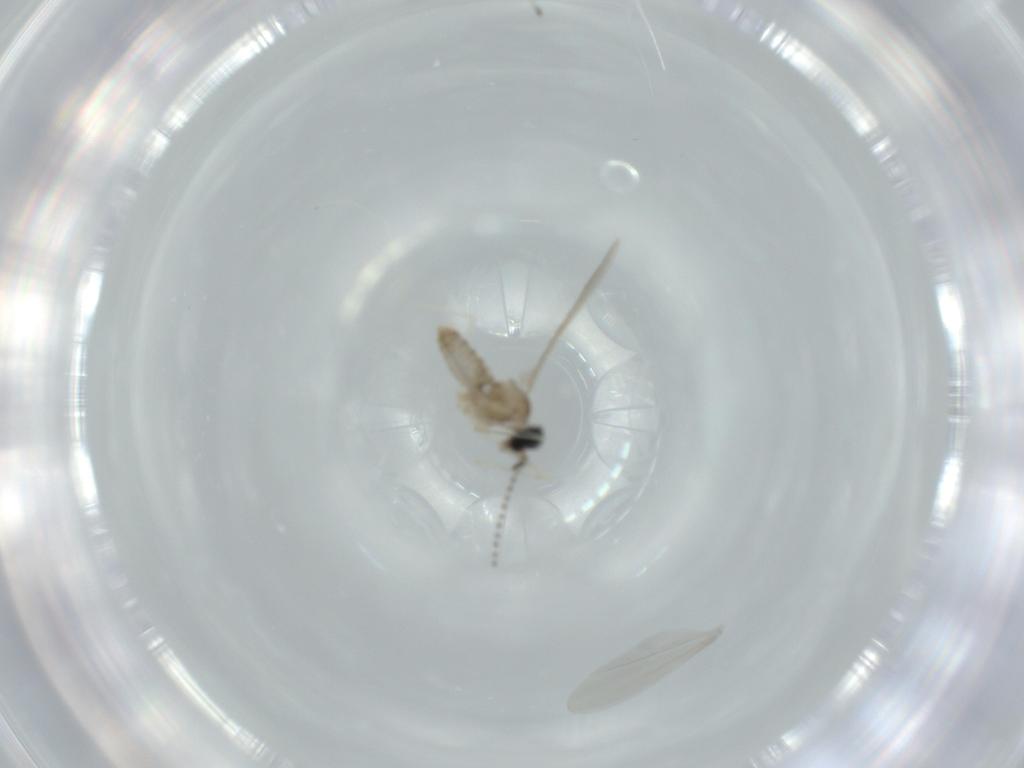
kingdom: Animalia
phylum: Arthropoda
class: Insecta
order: Diptera
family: Cecidomyiidae
